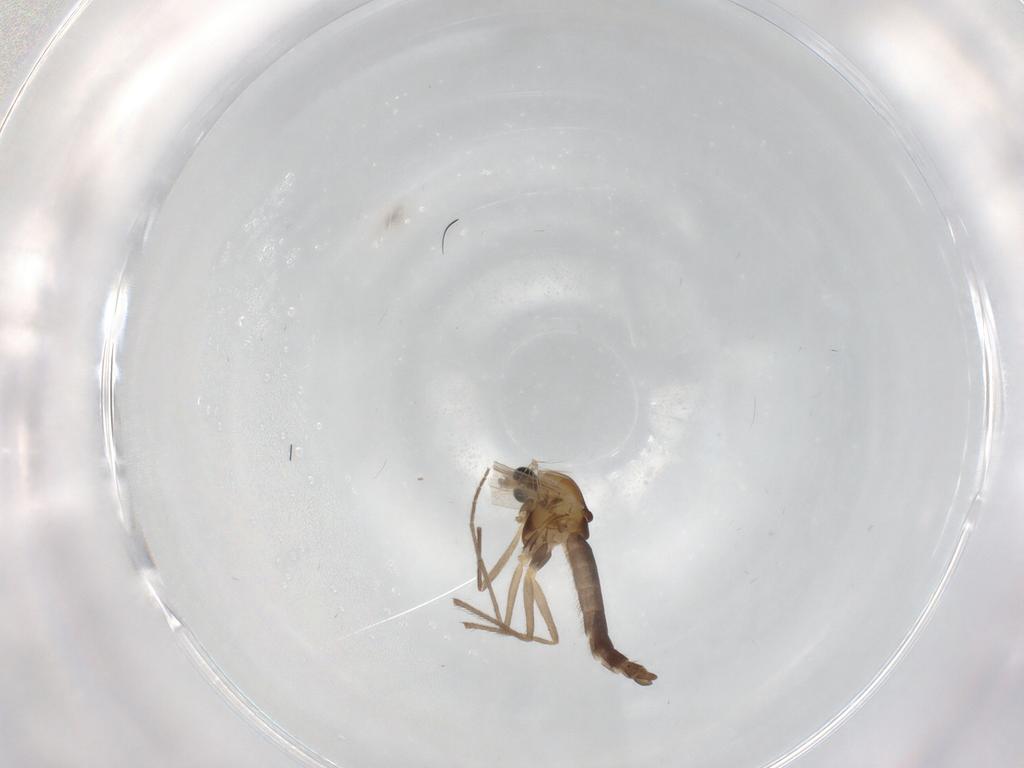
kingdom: Animalia
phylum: Arthropoda
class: Insecta
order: Diptera
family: Chironomidae
